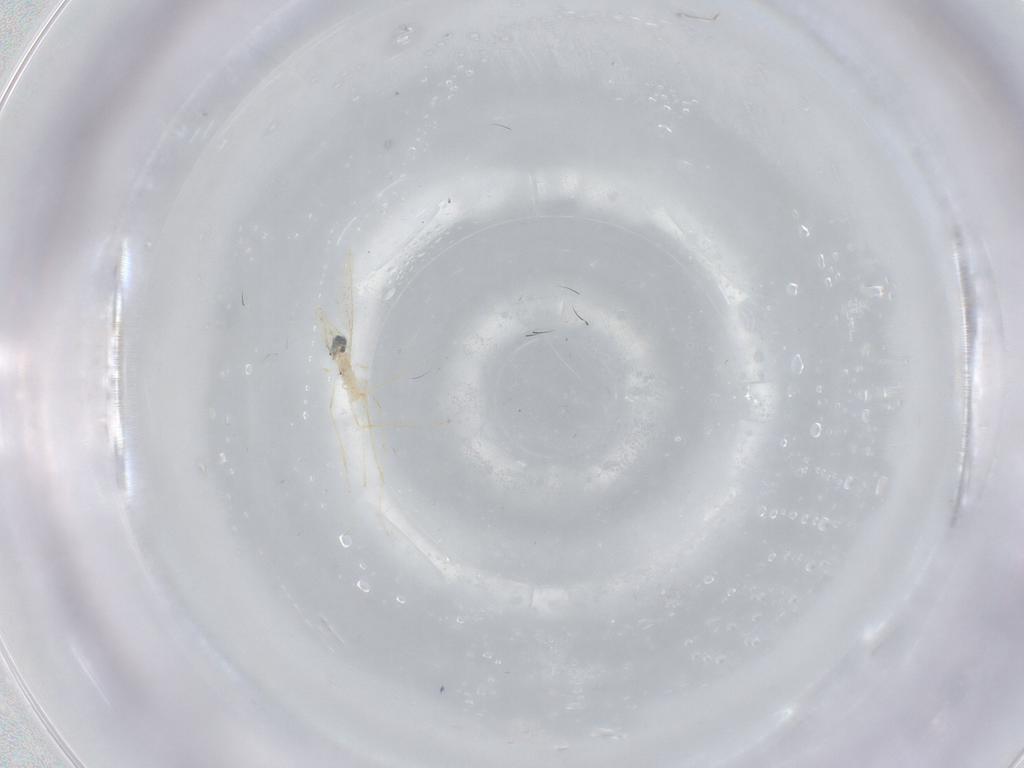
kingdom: Animalia
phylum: Arthropoda
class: Insecta
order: Diptera
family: Cecidomyiidae
